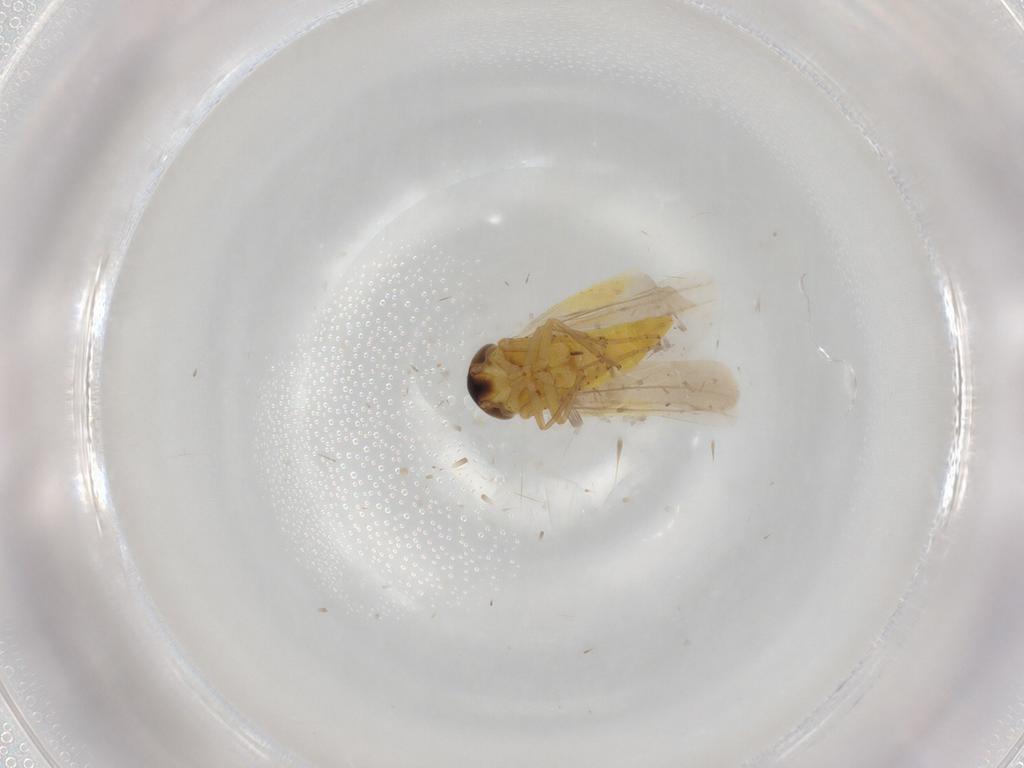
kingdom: Animalia
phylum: Arthropoda
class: Insecta
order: Hemiptera
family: Cicadellidae
